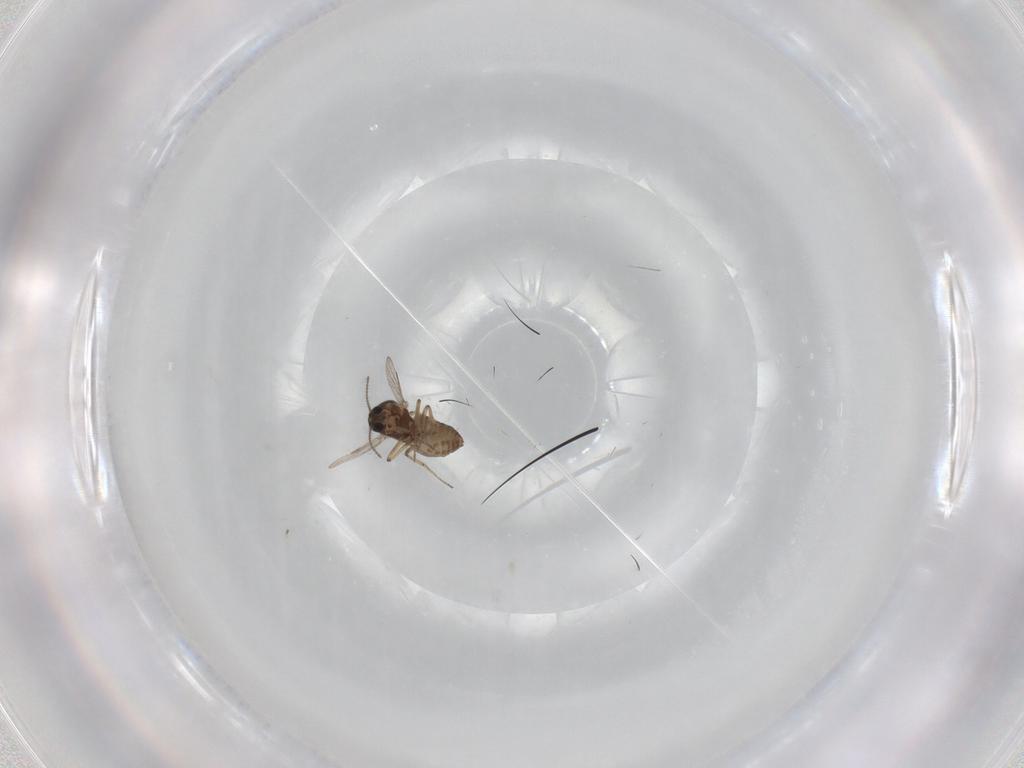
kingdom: Animalia
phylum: Arthropoda
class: Insecta
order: Diptera
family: Ceratopogonidae
